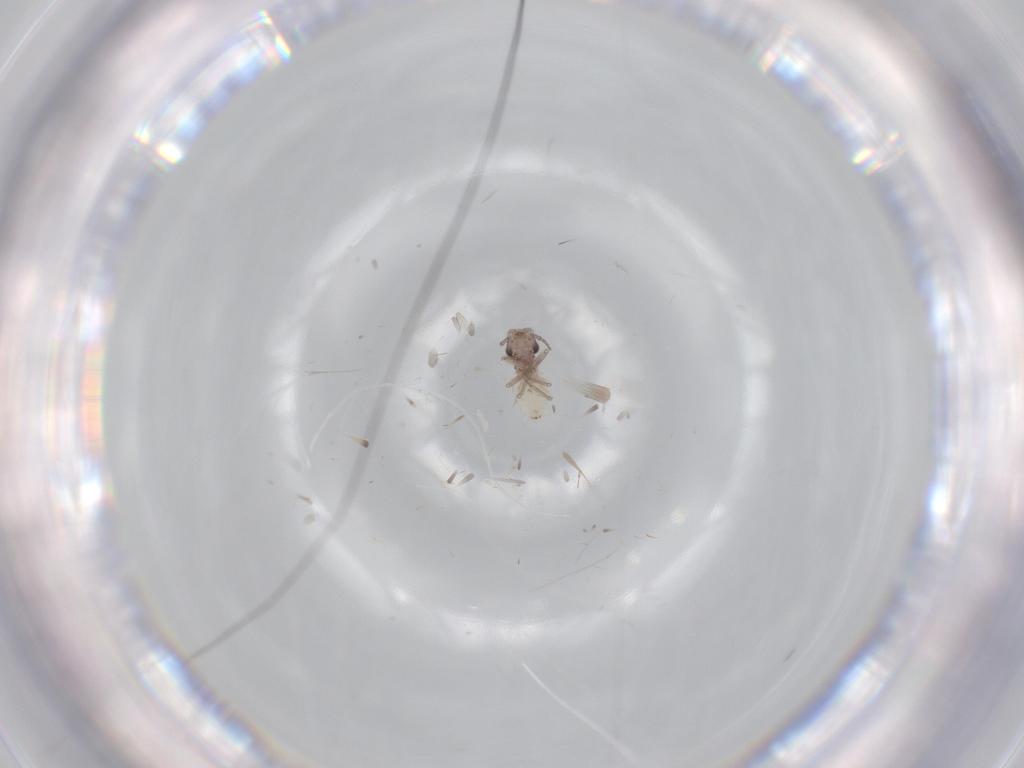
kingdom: Animalia
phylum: Arthropoda
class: Insecta
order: Psocodea
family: Lepidopsocidae
